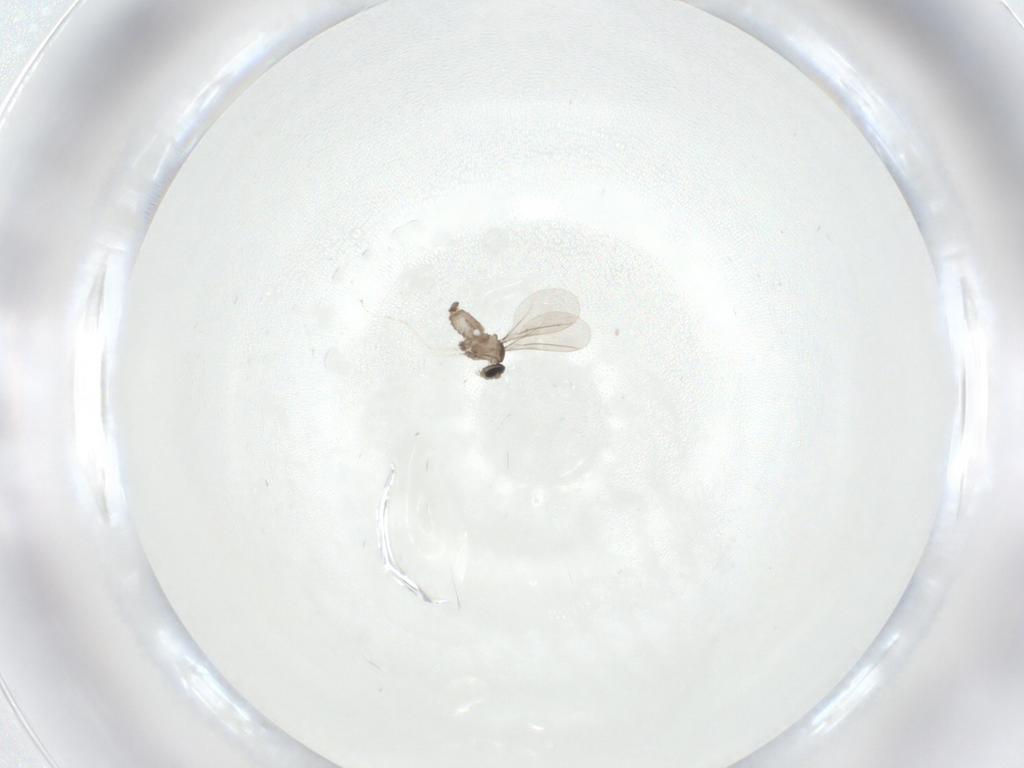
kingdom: Animalia
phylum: Arthropoda
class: Insecta
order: Diptera
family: Cecidomyiidae
